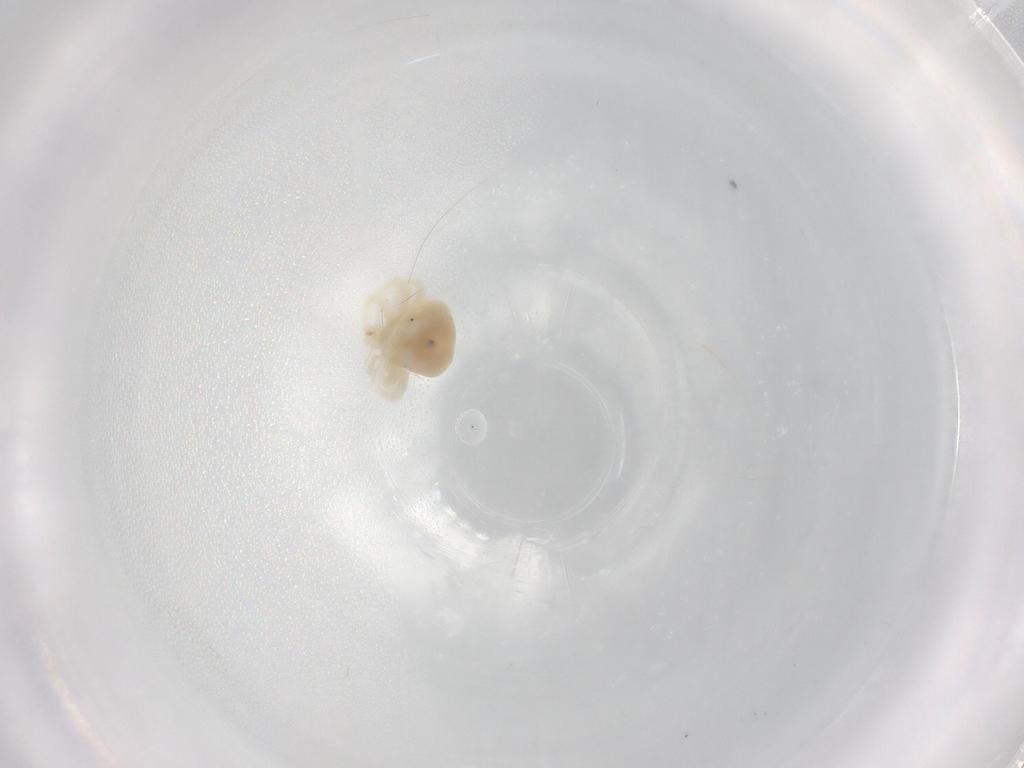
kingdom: Animalia
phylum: Arthropoda
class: Arachnida
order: Trombidiformes
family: Anystidae
